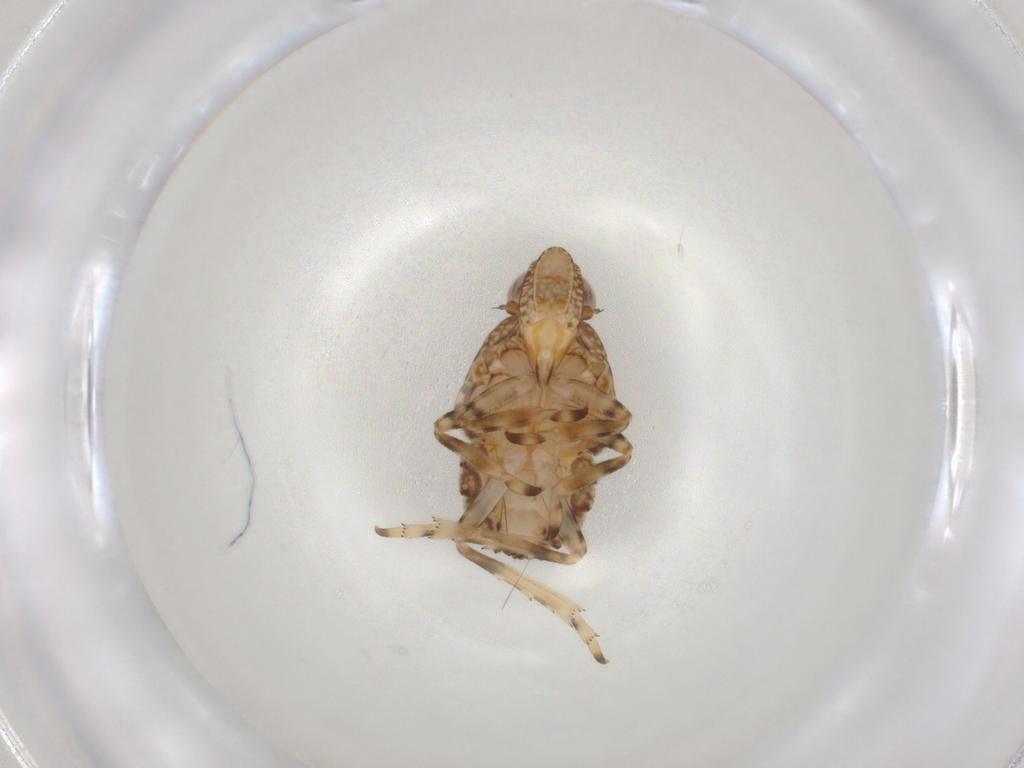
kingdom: Animalia
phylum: Arthropoda
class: Insecta
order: Hemiptera
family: Tropiduchidae
